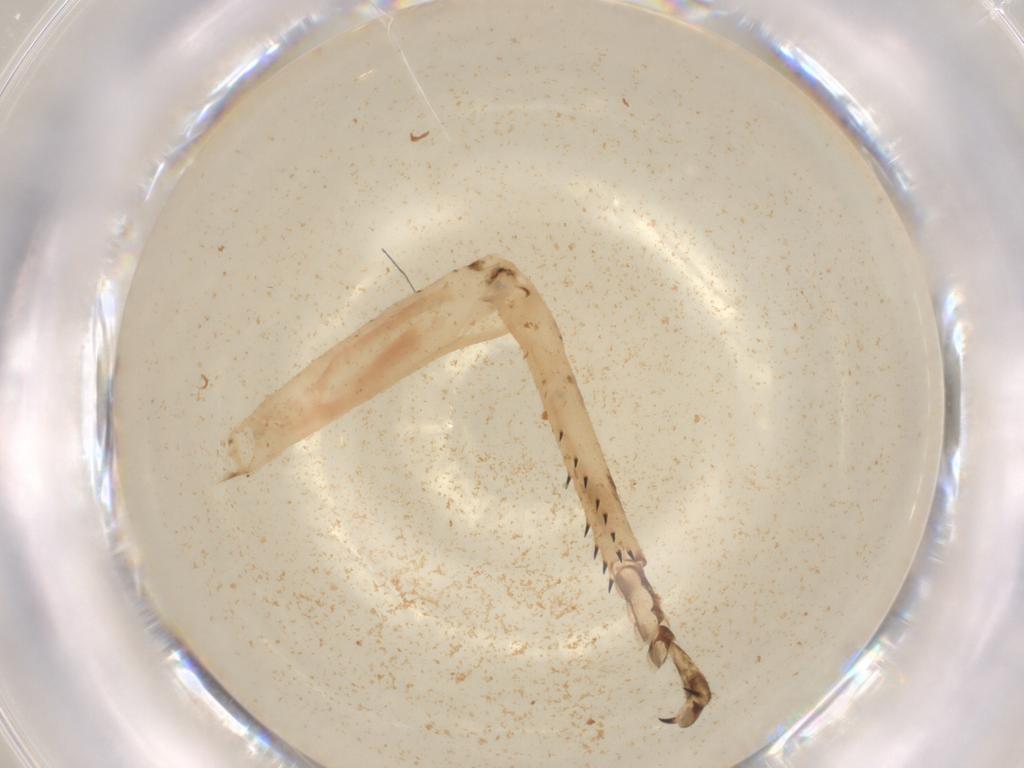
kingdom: Animalia
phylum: Arthropoda
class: Insecta
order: Orthoptera
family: Acrididae
